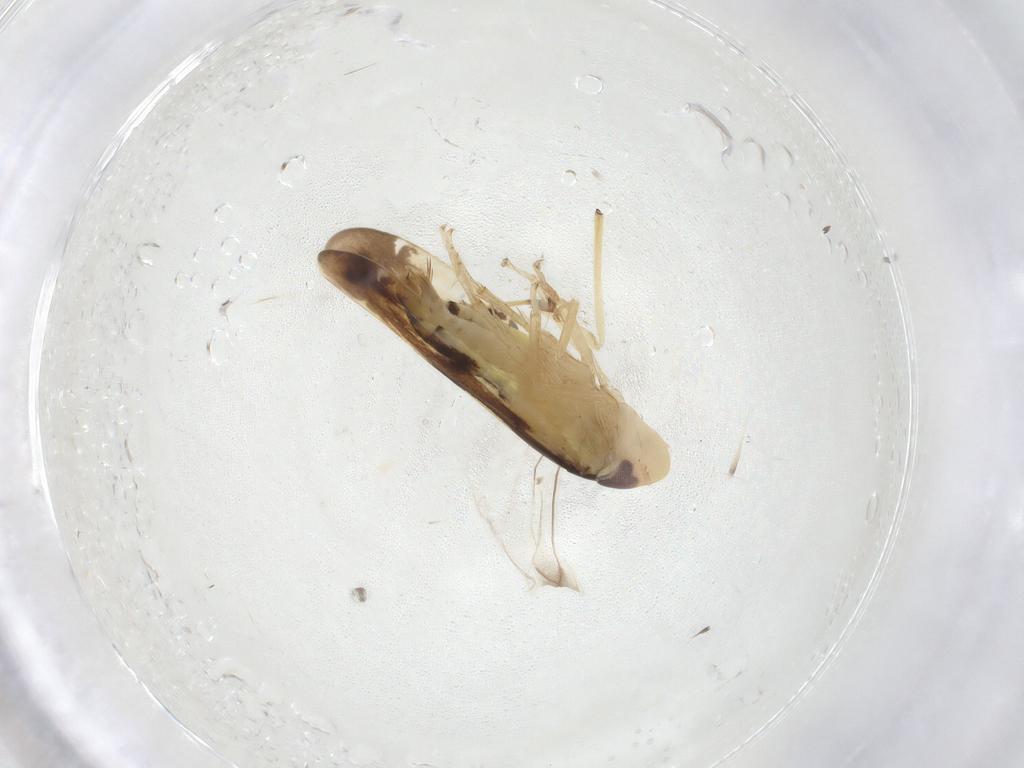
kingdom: Animalia
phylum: Arthropoda
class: Insecta
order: Hemiptera
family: Cicadellidae
